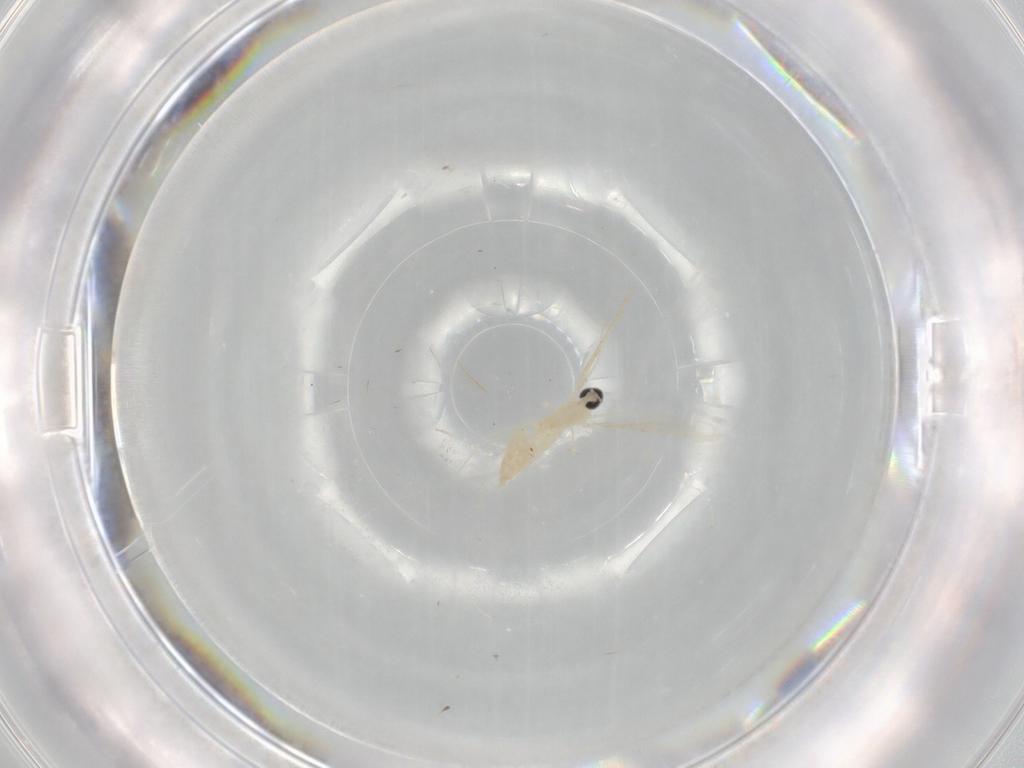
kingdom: Animalia
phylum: Arthropoda
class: Insecta
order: Diptera
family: Cecidomyiidae
